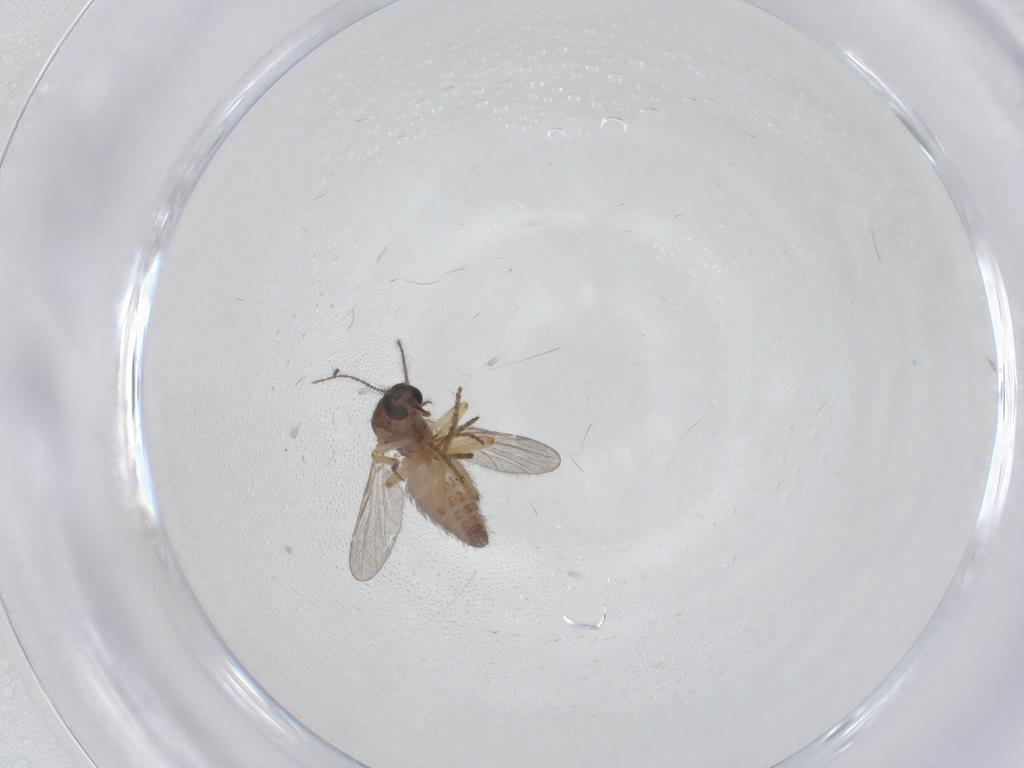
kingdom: Animalia
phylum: Arthropoda
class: Insecta
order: Diptera
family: Ceratopogonidae
